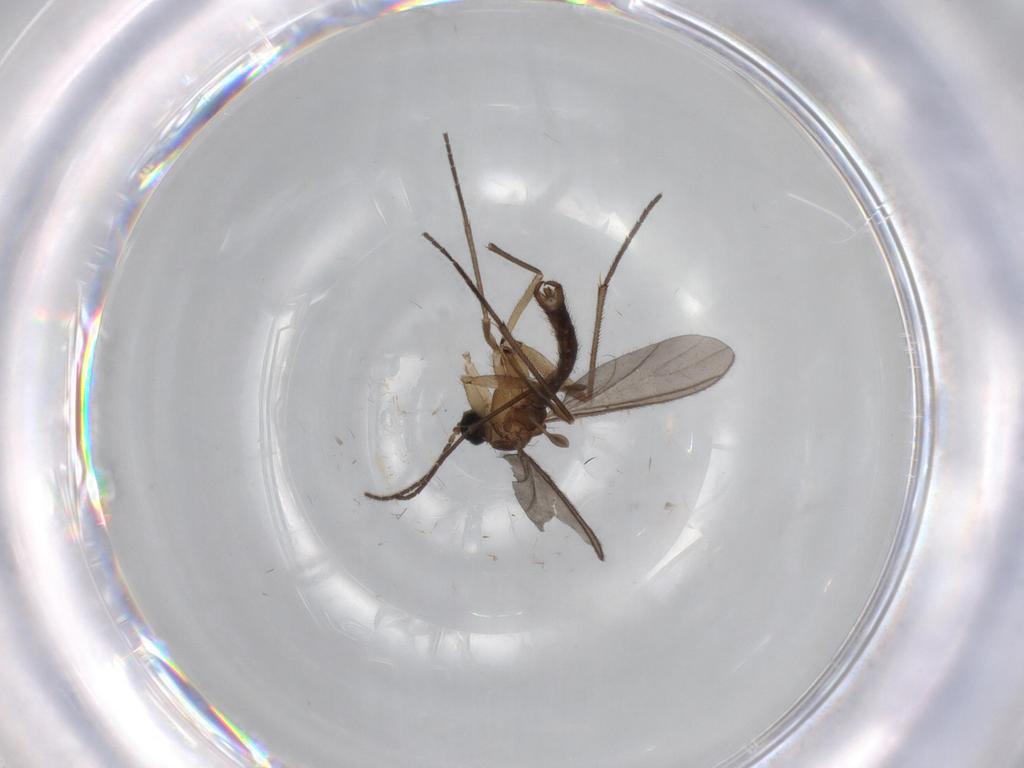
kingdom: Animalia
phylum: Arthropoda
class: Insecta
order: Diptera
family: Sciaridae
